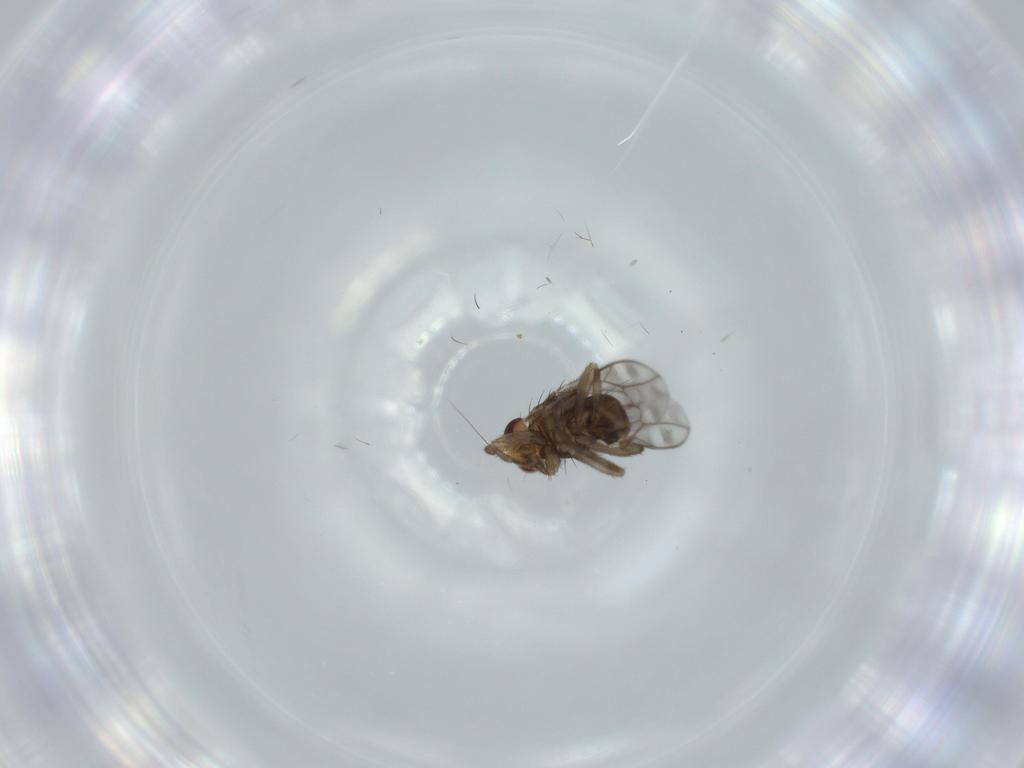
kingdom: Animalia
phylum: Arthropoda
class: Insecta
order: Diptera
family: Sphaeroceridae
